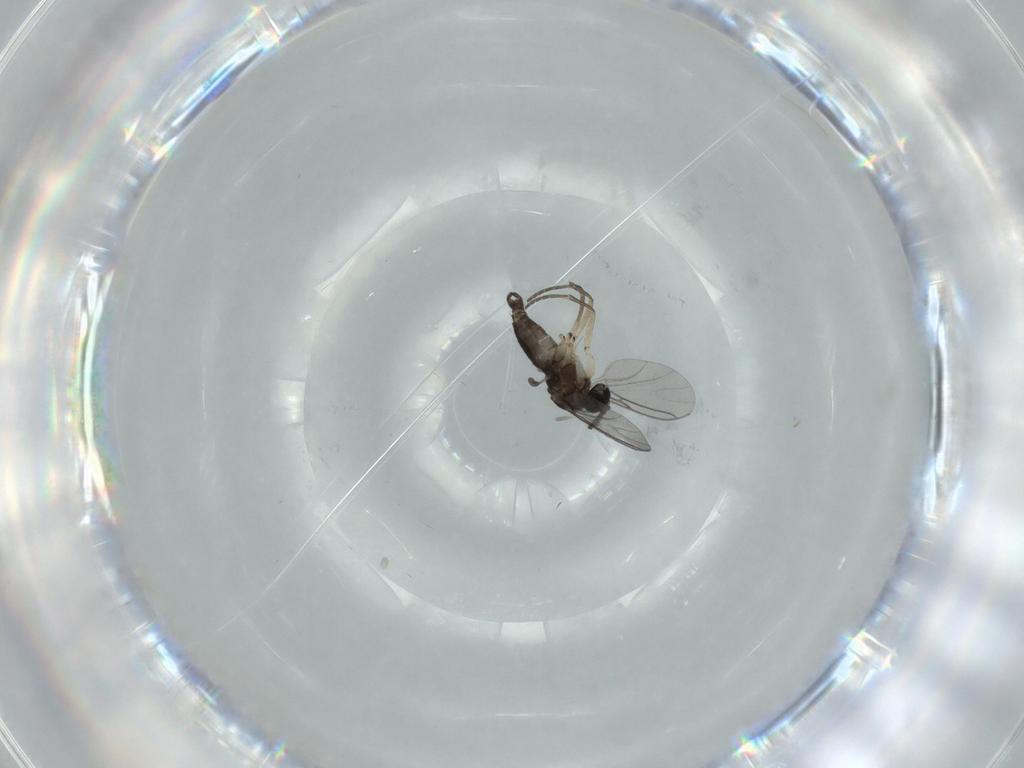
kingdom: Animalia
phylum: Arthropoda
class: Insecta
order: Diptera
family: Sciaridae
